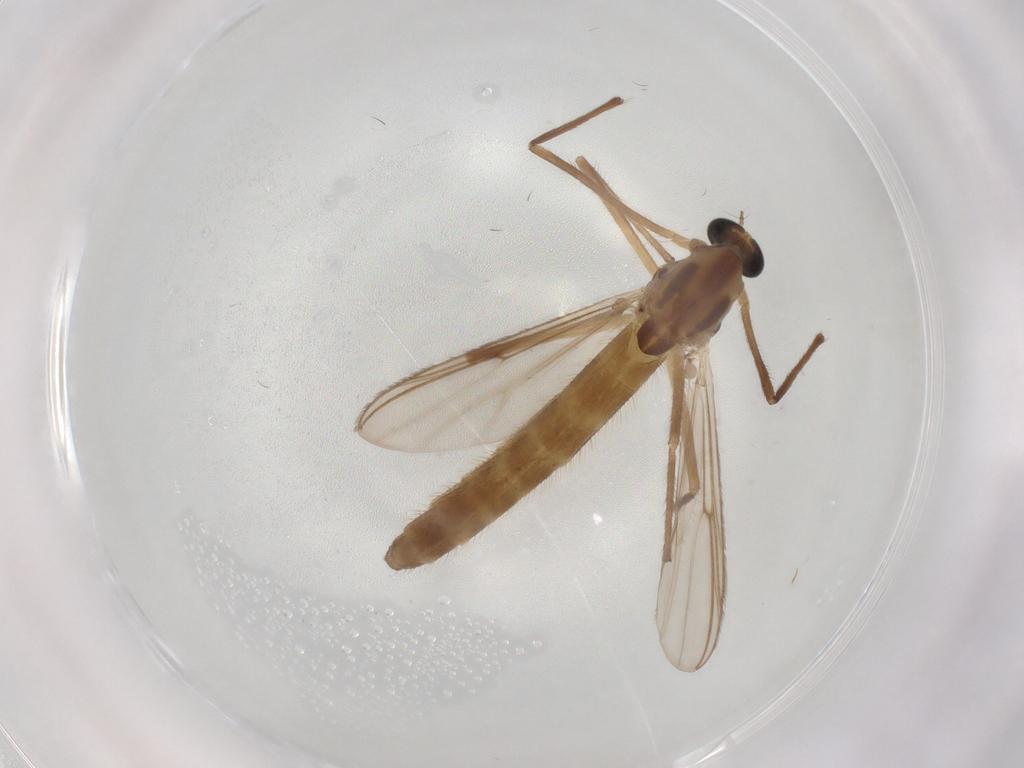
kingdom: Animalia
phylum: Arthropoda
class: Insecta
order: Diptera
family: Chironomidae
